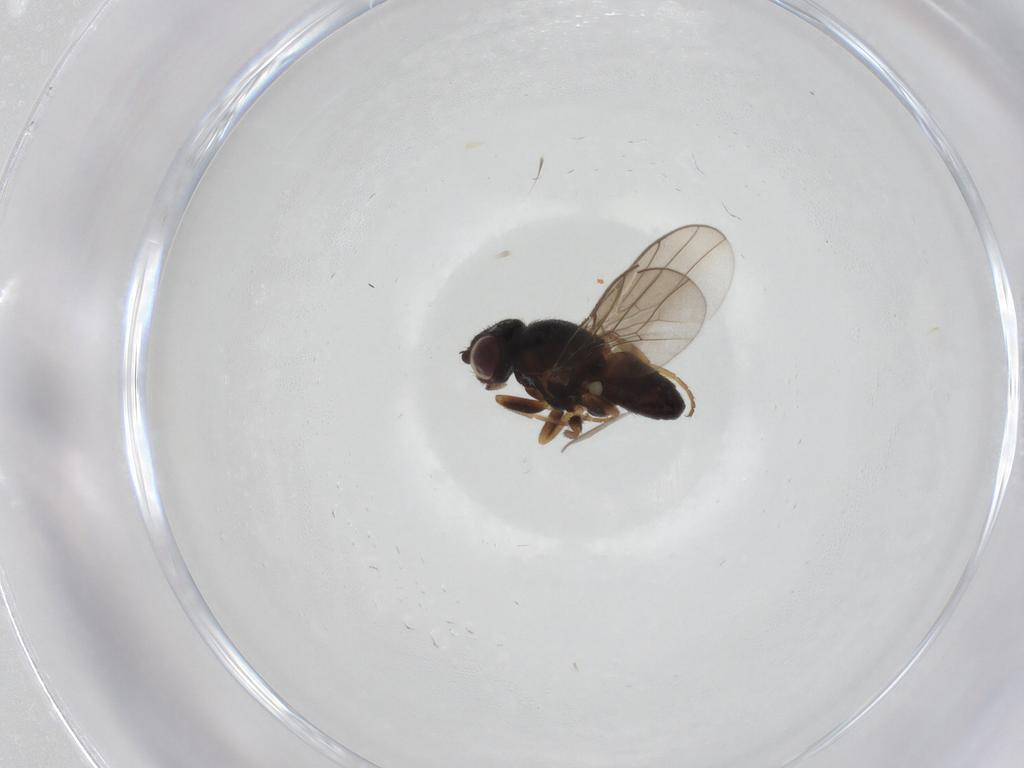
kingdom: Animalia
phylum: Arthropoda
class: Insecta
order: Diptera
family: Chloropidae
